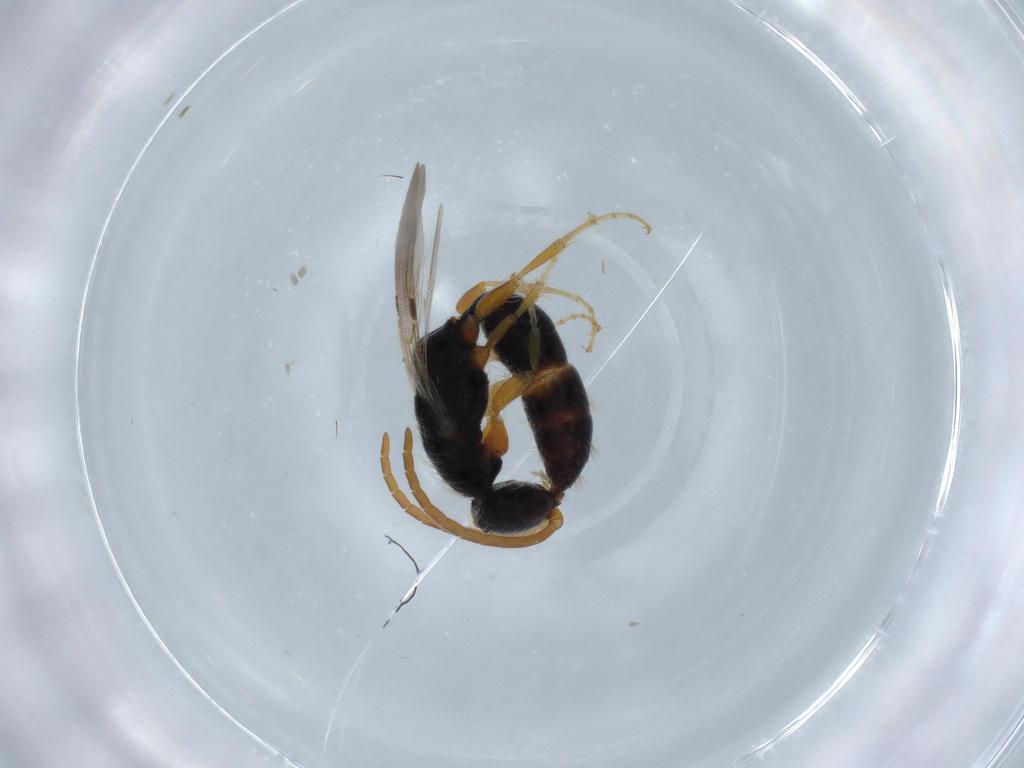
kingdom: Animalia
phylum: Arthropoda
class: Insecta
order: Hymenoptera
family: Bethylidae
